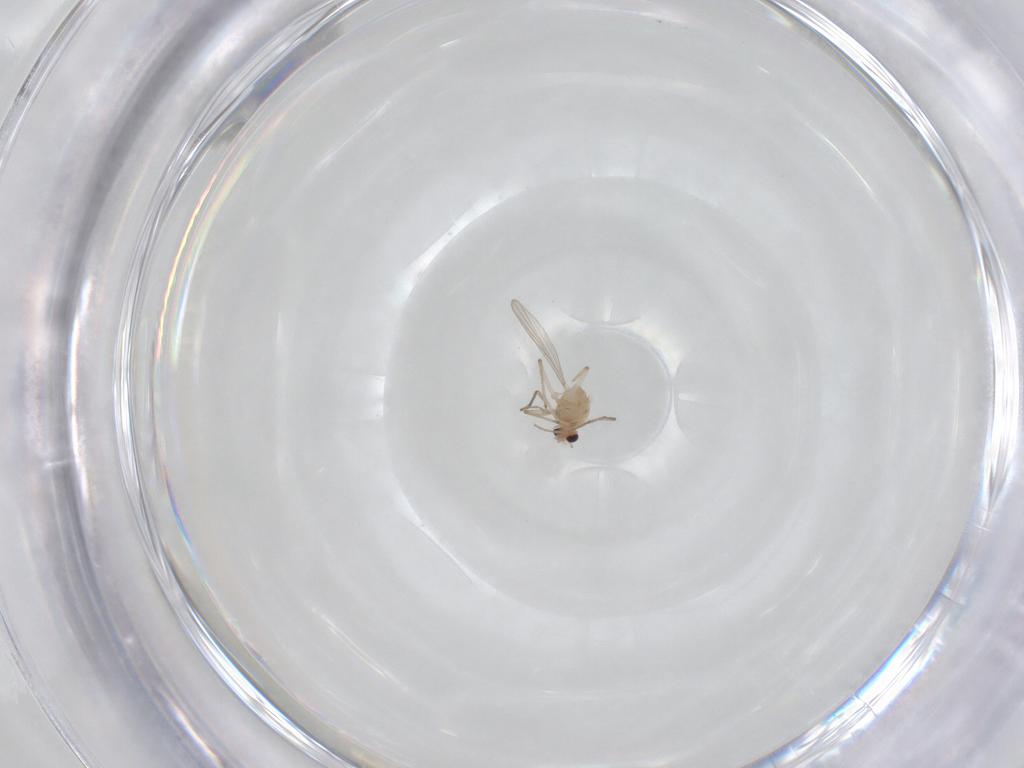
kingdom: Animalia
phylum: Arthropoda
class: Insecta
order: Diptera
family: Chironomidae
